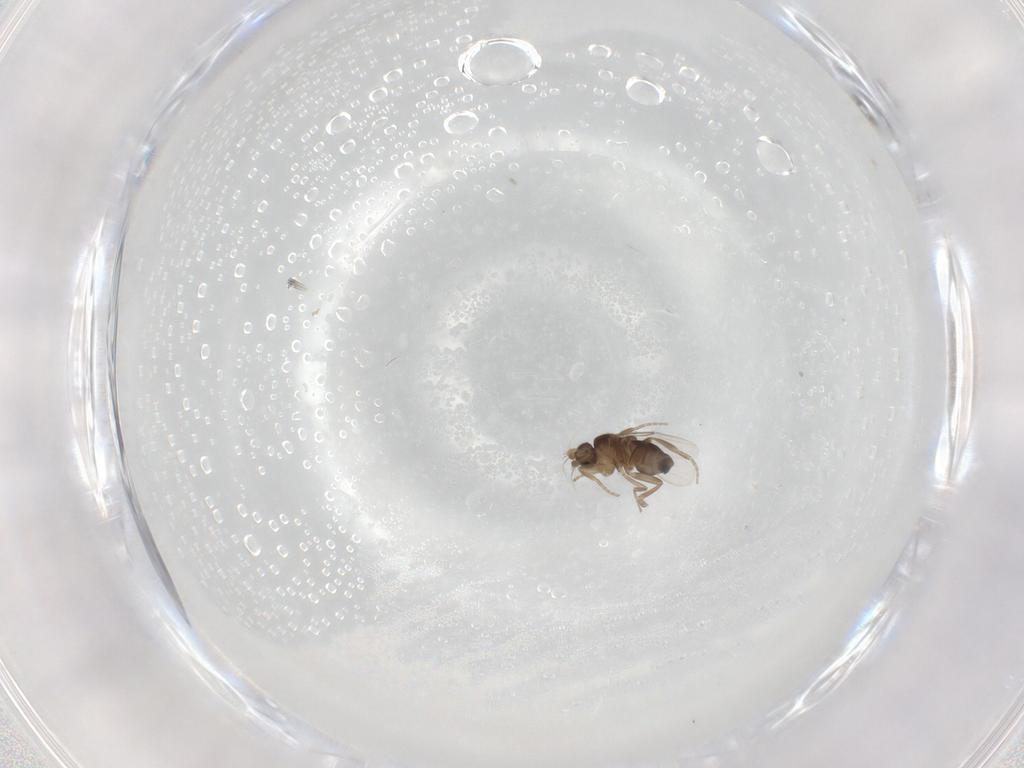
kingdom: Animalia
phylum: Arthropoda
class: Insecta
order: Diptera
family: Phoridae
